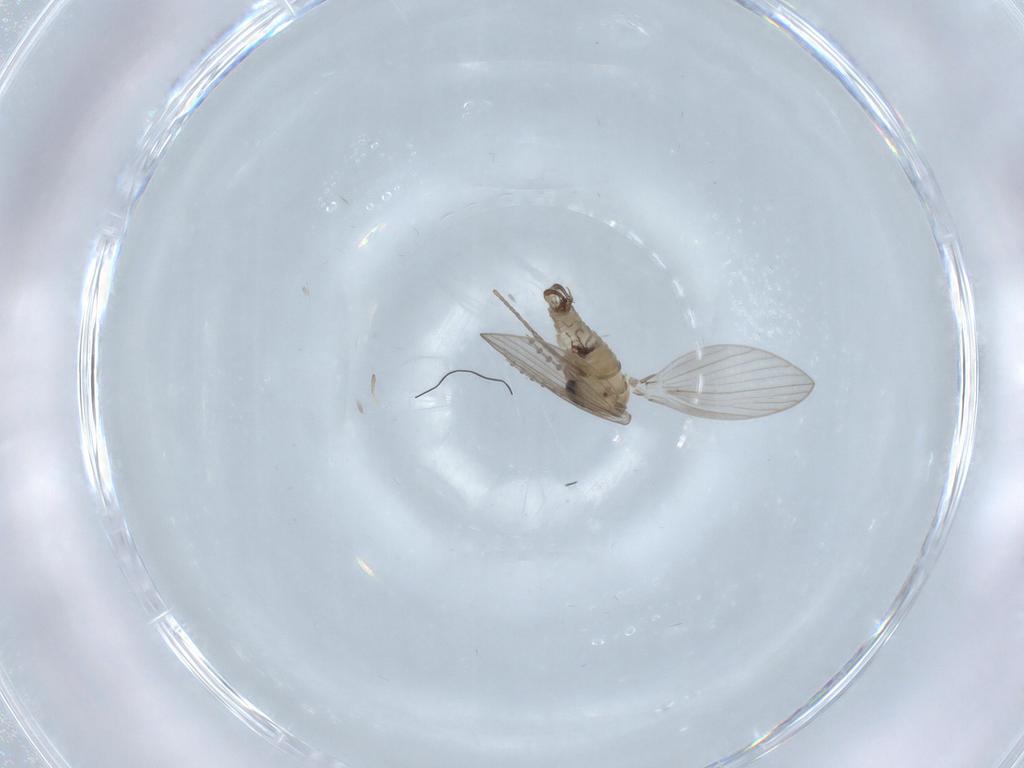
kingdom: Animalia
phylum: Arthropoda
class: Insecta
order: Diptera
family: Psychodidae
